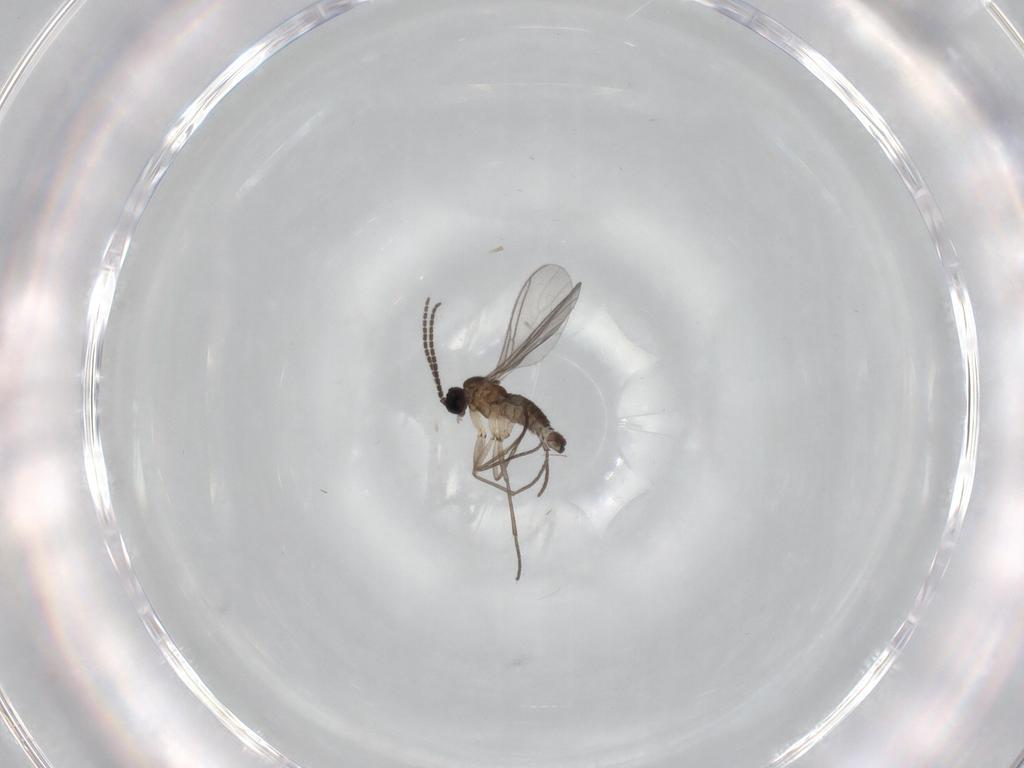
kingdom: Animalia
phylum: Arthropoda
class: Insecta
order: Diptera
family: Sciaridae
